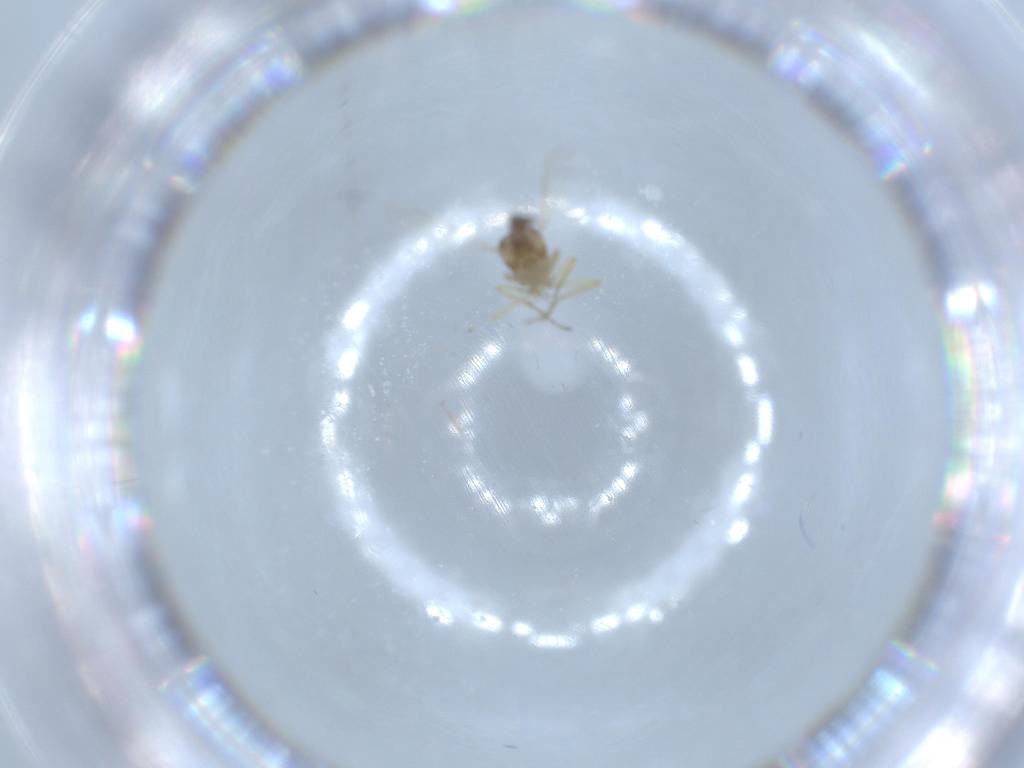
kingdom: Animalia
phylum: Arthropoda
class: Insecta
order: Diptera
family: Ceratopogonidae
